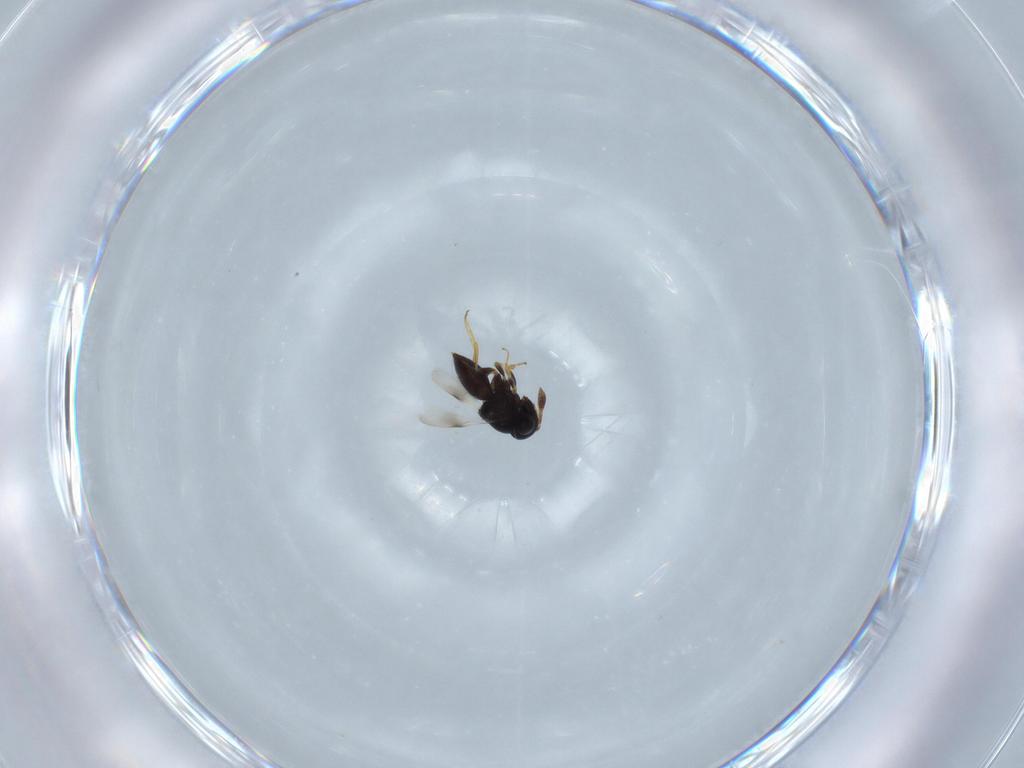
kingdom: Animalia
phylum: Arthropoda
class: Insecta
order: Hymenoptera
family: Scelionidae
